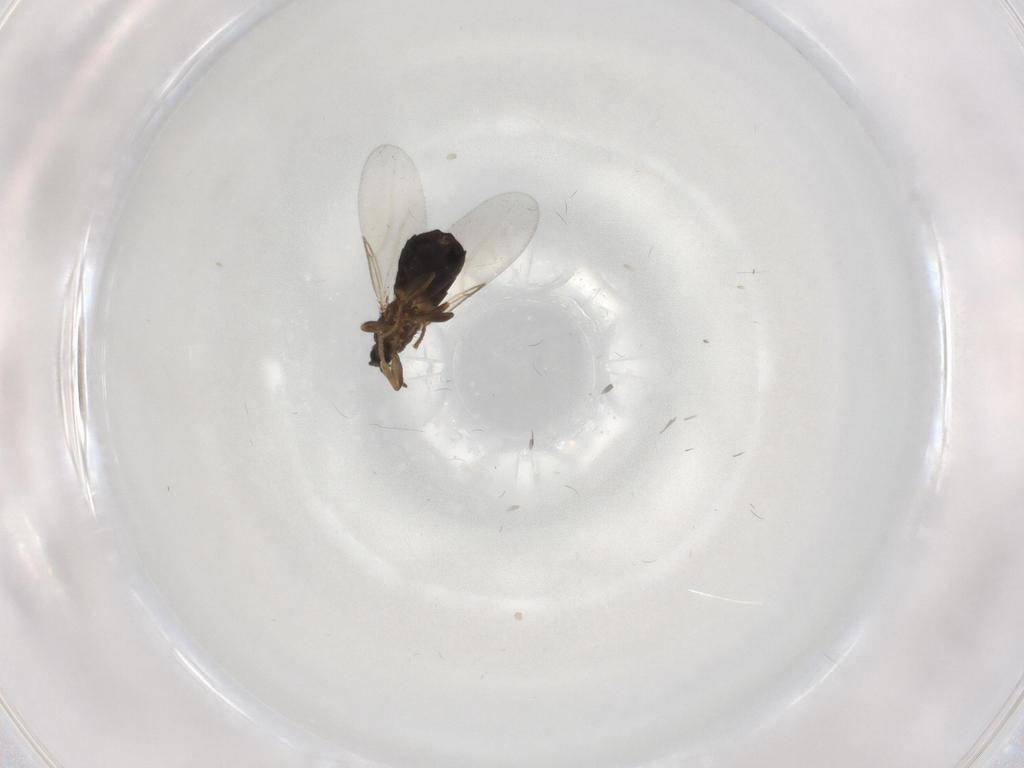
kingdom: Animalia
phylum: Arthropoda
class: Insecta
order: Diptera
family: Scatopsidae
